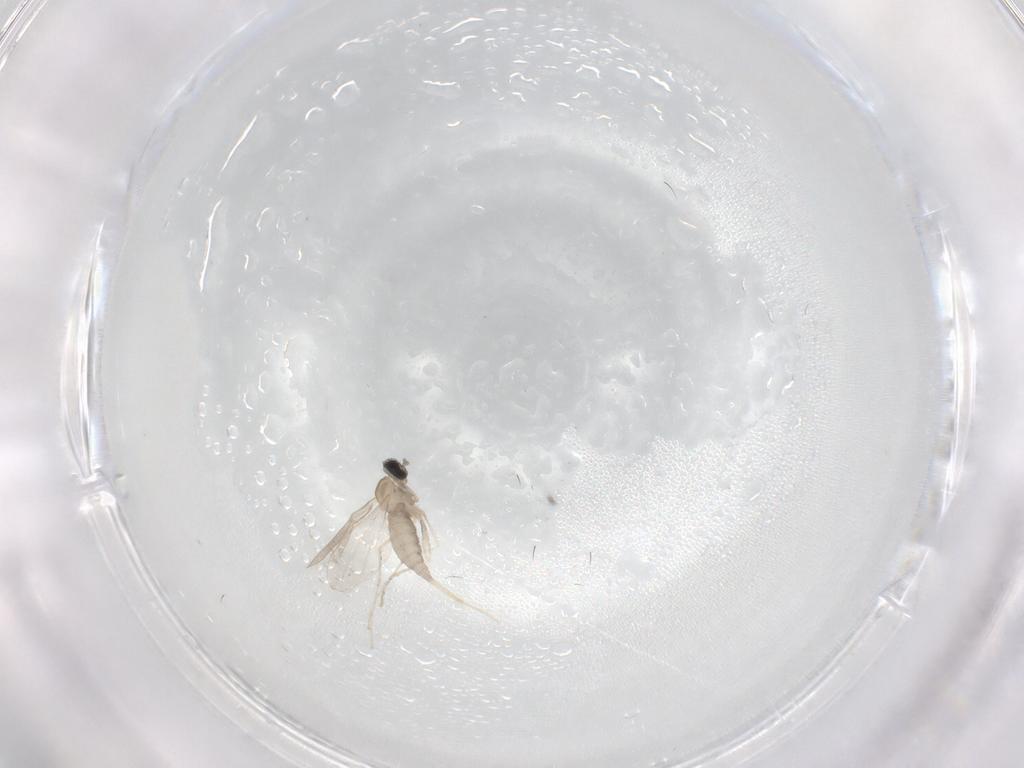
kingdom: Animalia
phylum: Arthropoda
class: Insecta
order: Diptera
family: Cecidomyiidae
